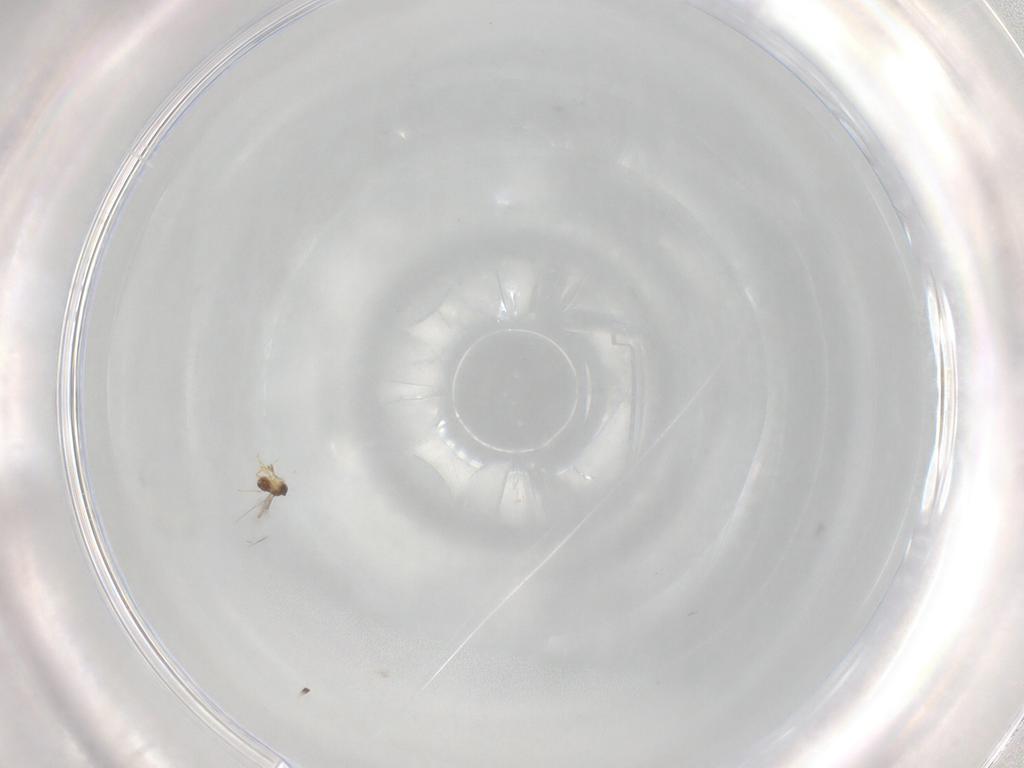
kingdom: Animalia
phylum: Arthropoda
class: Insecta
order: Hymenoptera
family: Mymaridae
